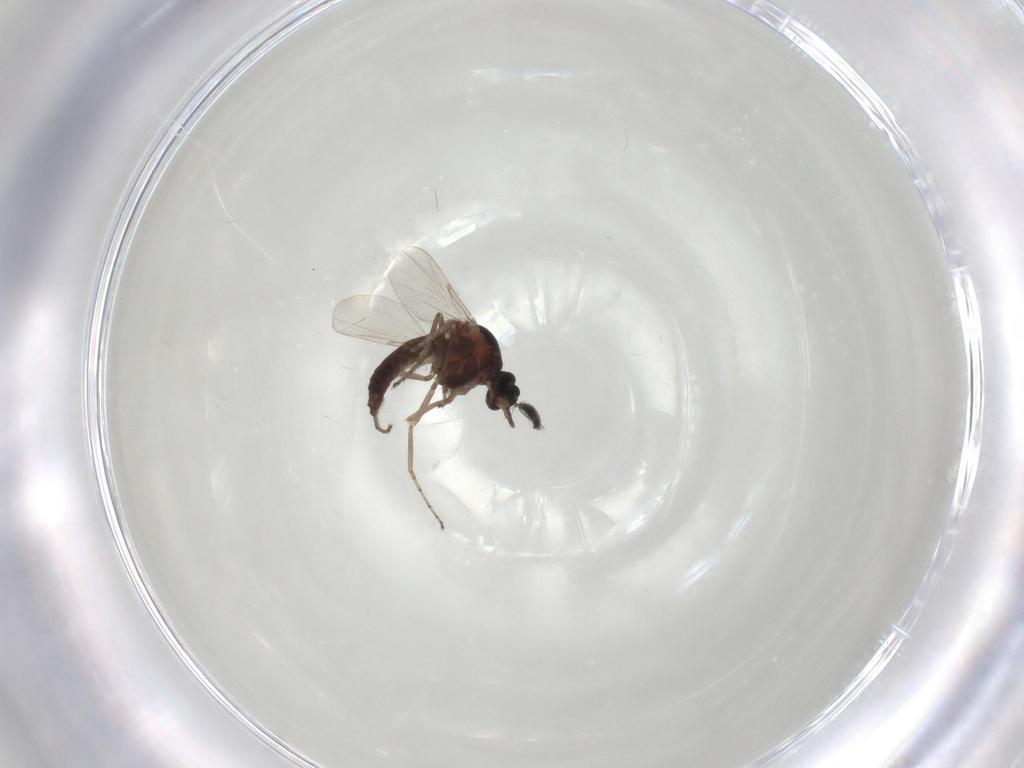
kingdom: Animalia
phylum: Arthropoda
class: Insecta
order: Diptera
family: Ceratopogonidae
